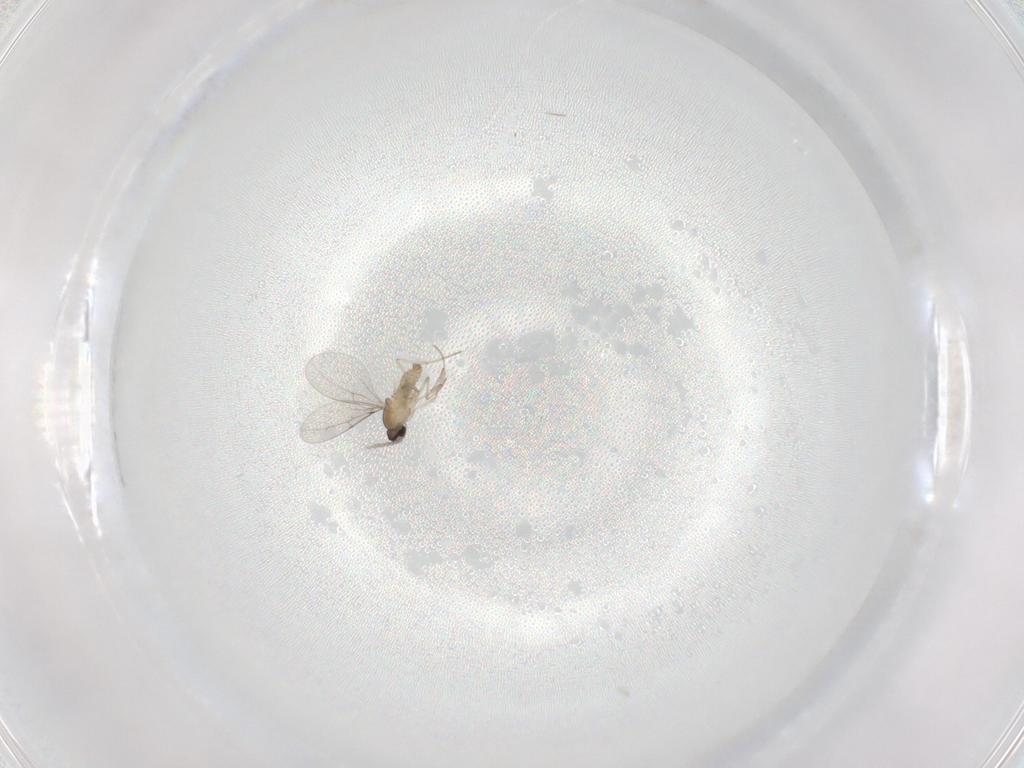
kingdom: Animalia
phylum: Arthropoda
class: Insecta
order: Diptera
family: Cecidomyiidae
